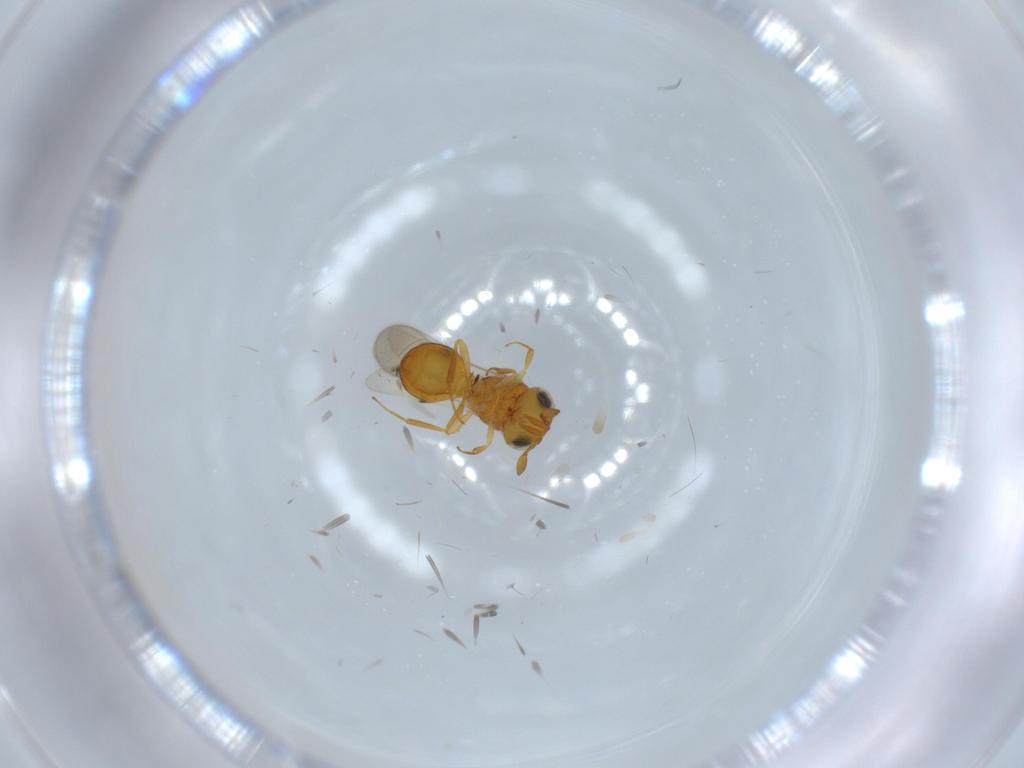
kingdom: Animalia
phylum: Arthropoda
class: Insecta
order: Hymenoptera
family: Scelionidae
